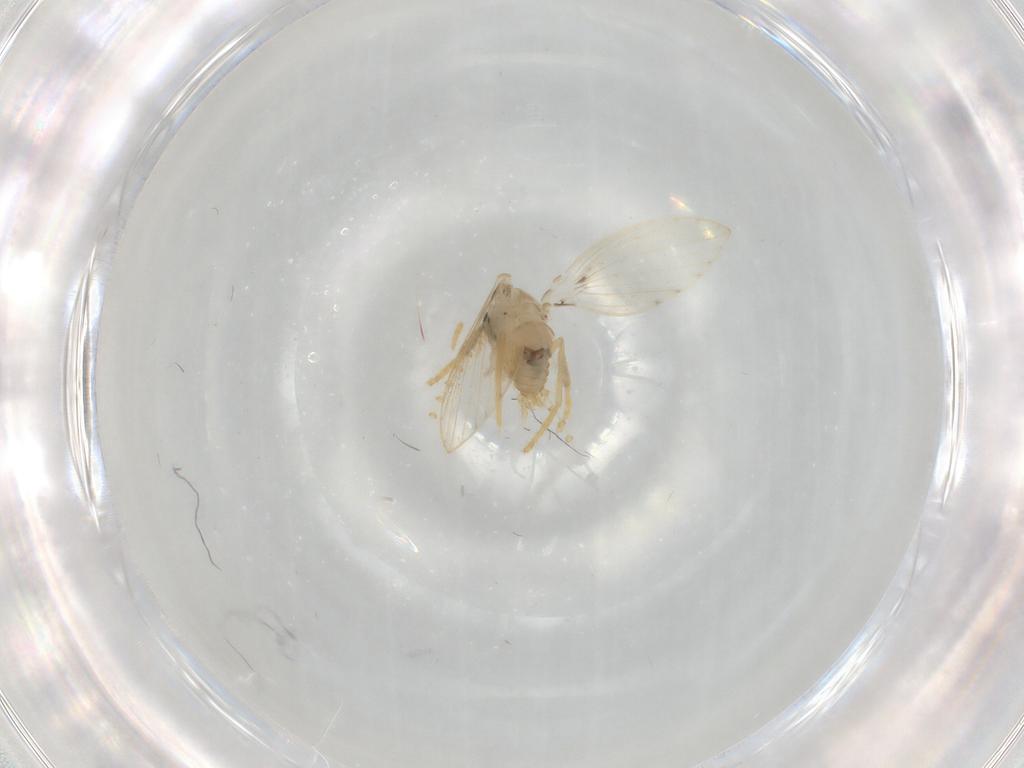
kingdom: Animalia
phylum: Arthropoda
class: Insecta
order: Diptera
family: Psychodidae
